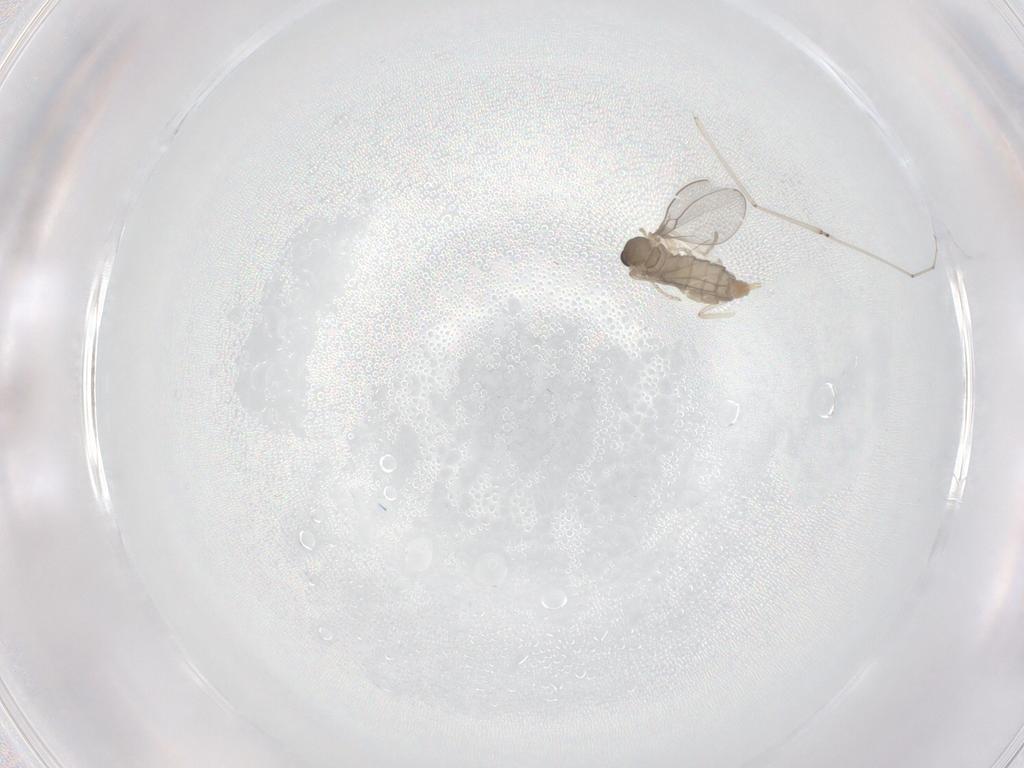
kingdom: Animalia
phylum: Arthropoda
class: Insecta
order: Diptera
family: Cecidomyiidae
